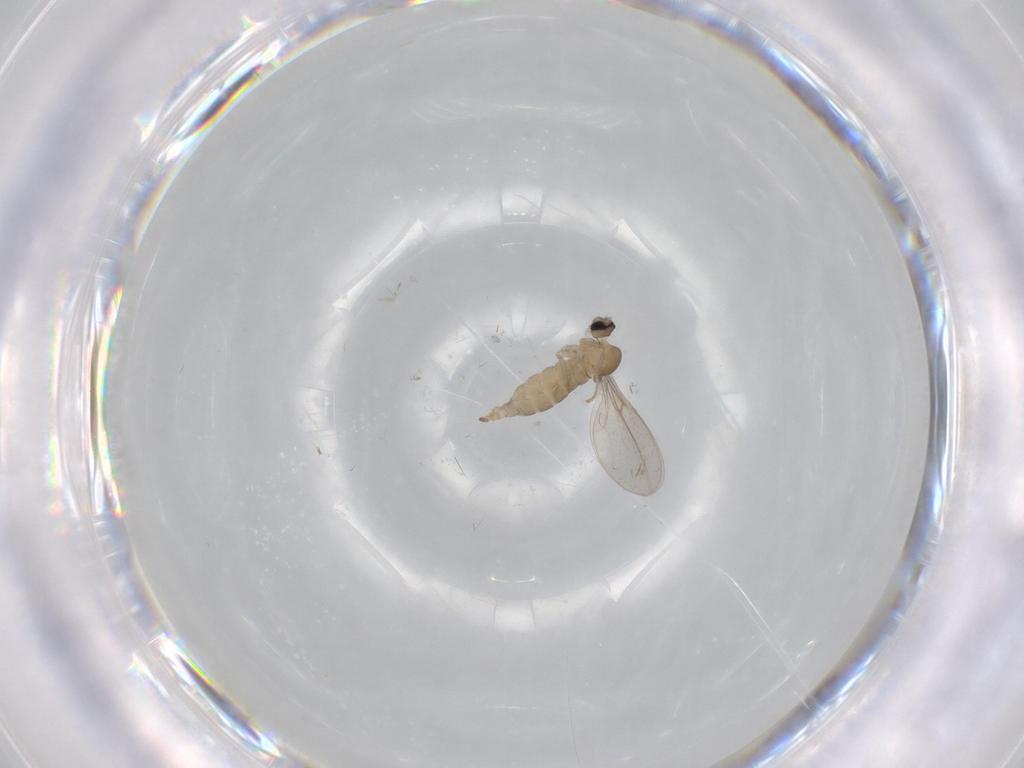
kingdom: Animalia
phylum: Arthropoda
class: Insecta
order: Diptera
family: Cecidomyiidae
